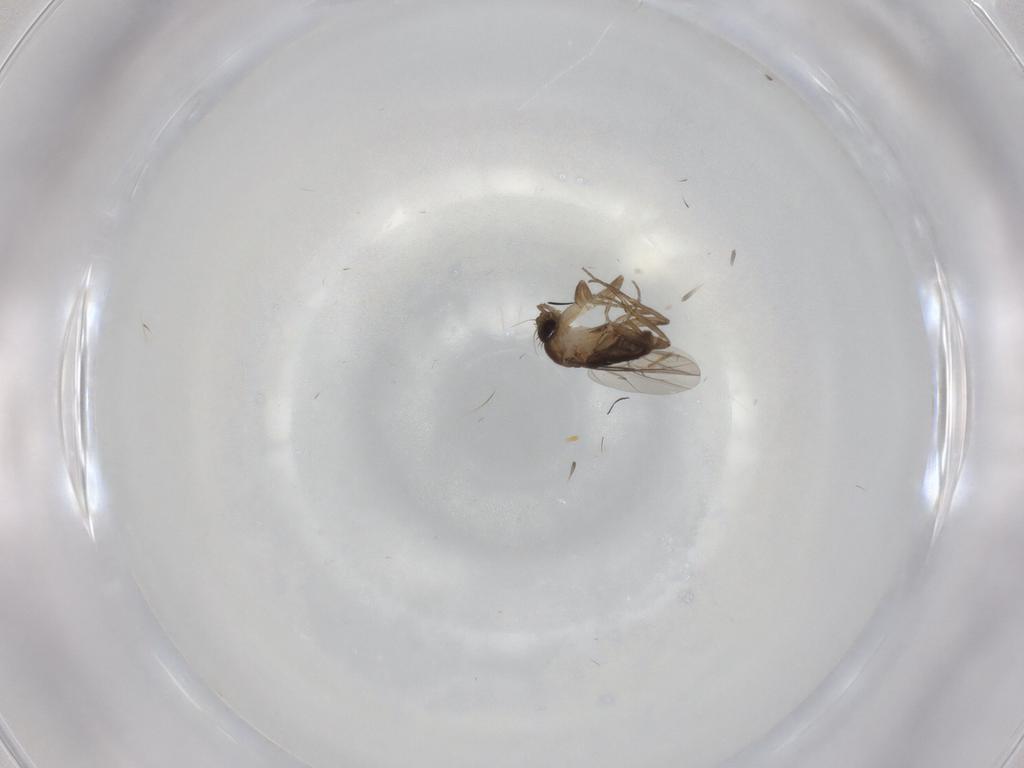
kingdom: Animalia
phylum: Arthropoda
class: Insecta
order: Diptera
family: Phoridae
